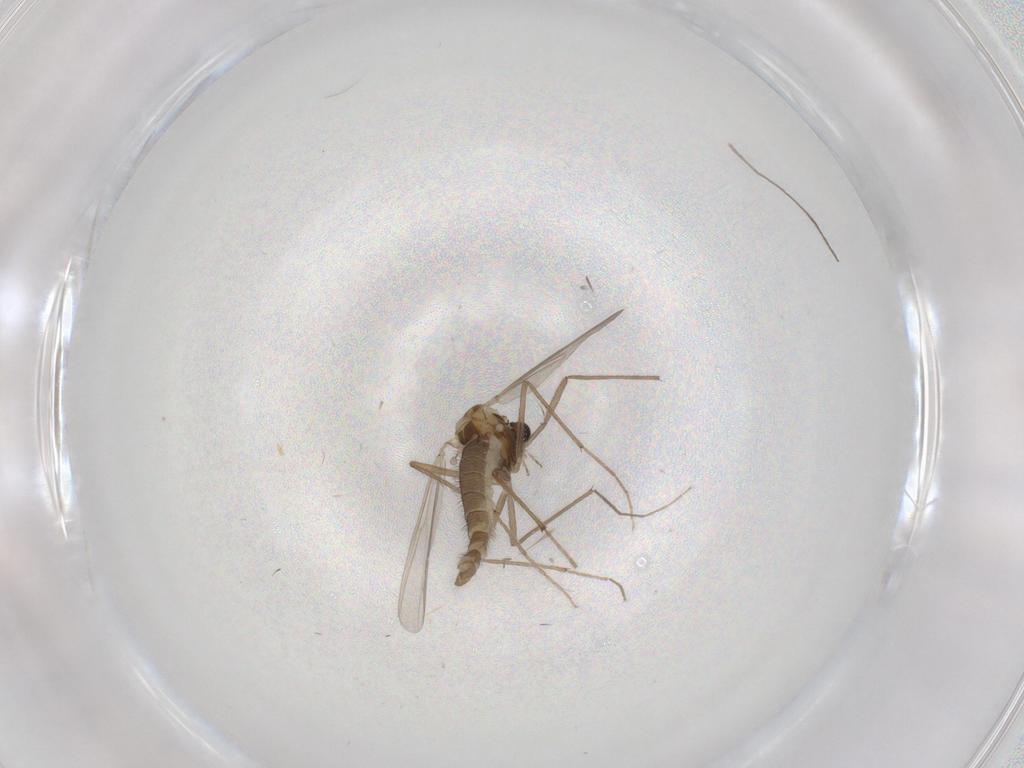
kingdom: Animalia
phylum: Arthropoda
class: Insecta
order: Diptera
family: Chironomidae
